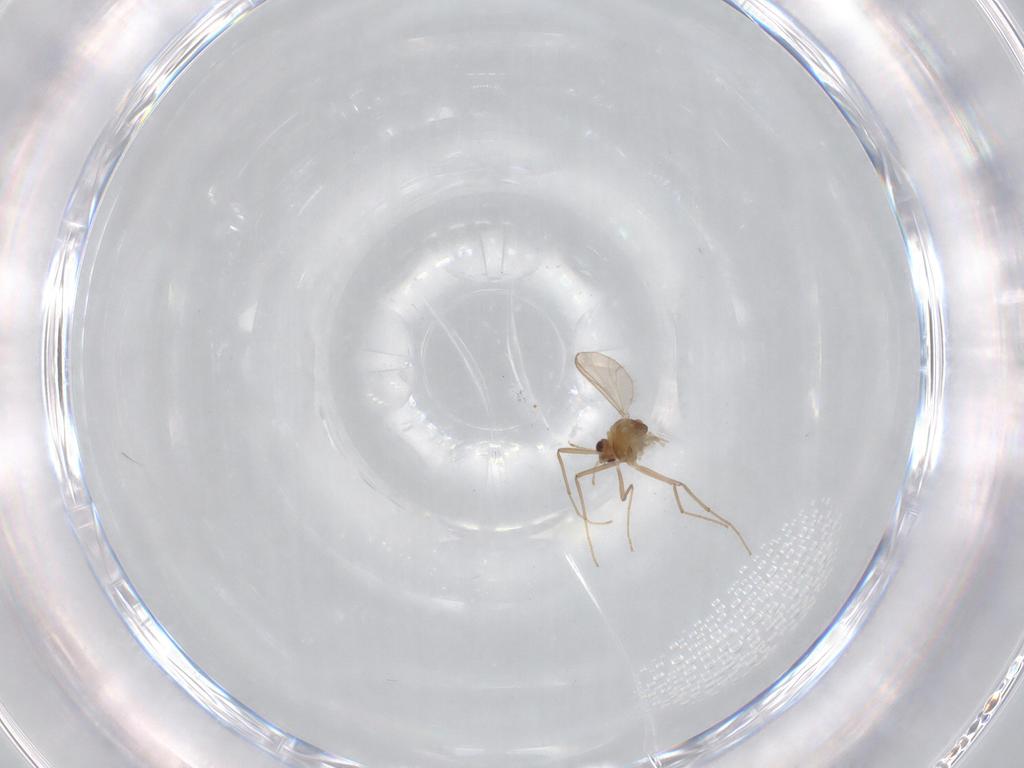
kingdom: Animalia
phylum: Arthropoda
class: Insecta
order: Diptera
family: Chironomidae
